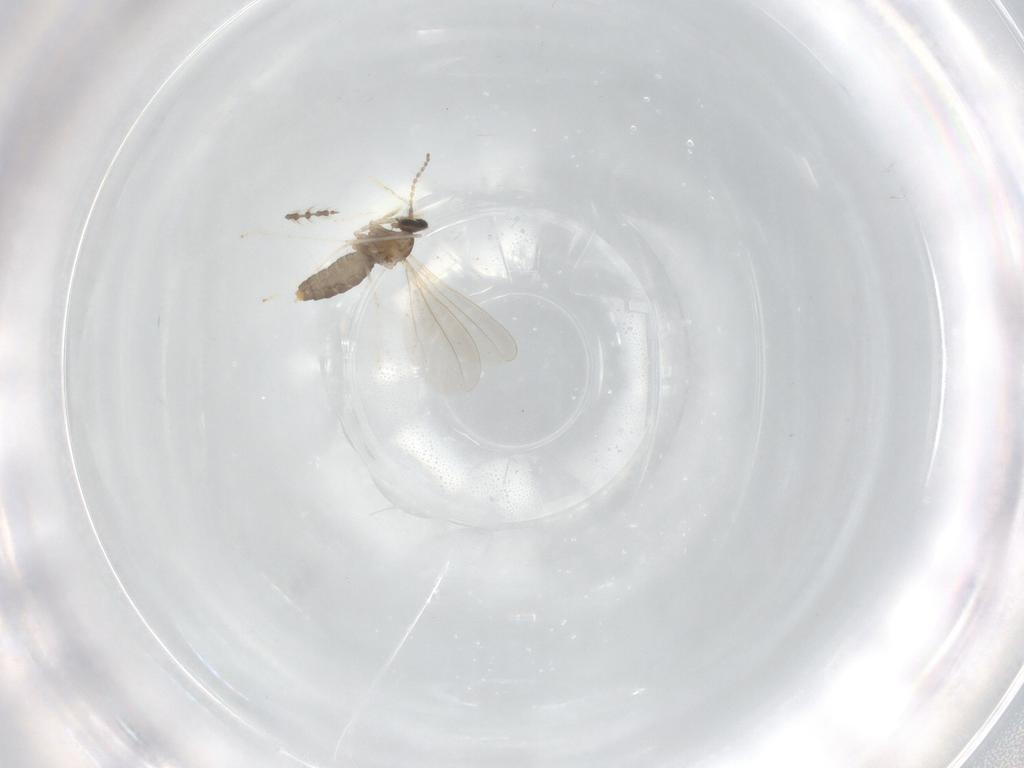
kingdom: Animalia
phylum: Arthropoda
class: Insecta
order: Diptera
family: Cecidomyiidae
